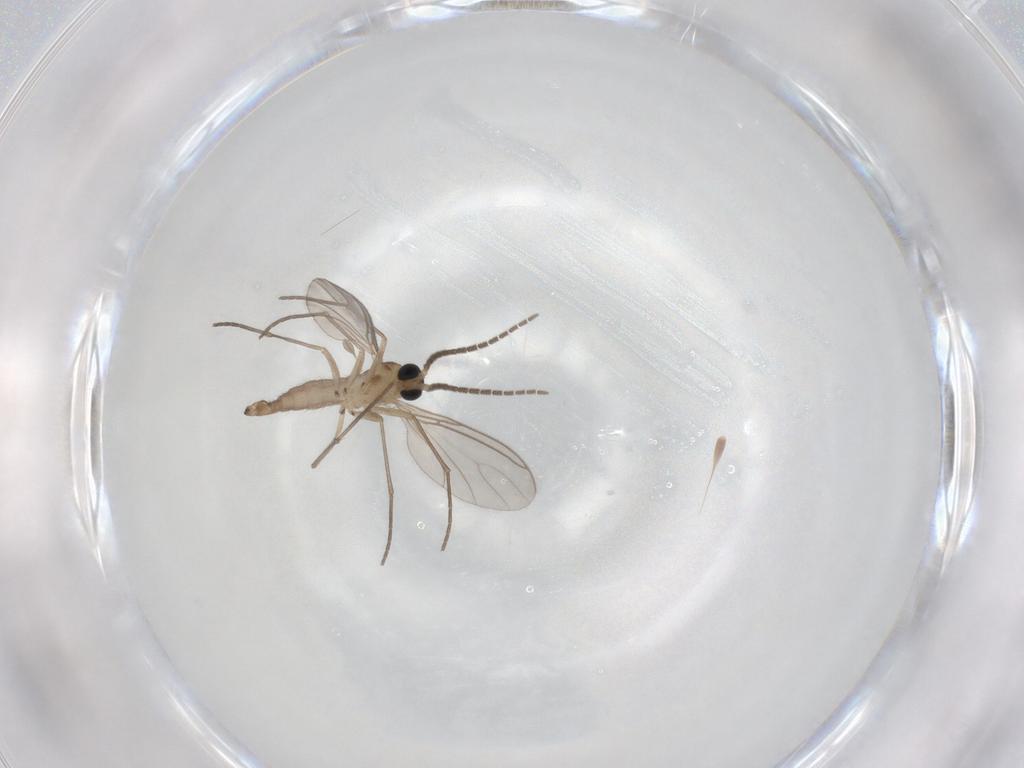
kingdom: Animalia
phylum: Arthropoda
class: Insecta
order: Diptera
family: Sciaridae
